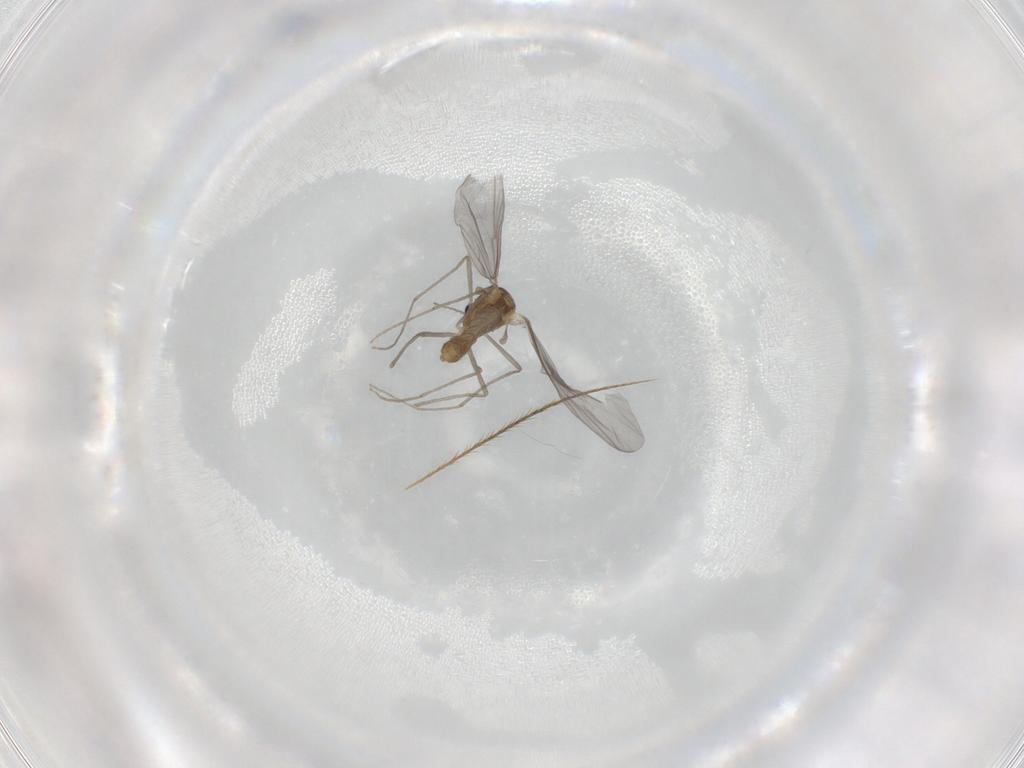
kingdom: Animalia
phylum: Arthropoda
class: Insecta
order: Diptera
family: Chironomidae
